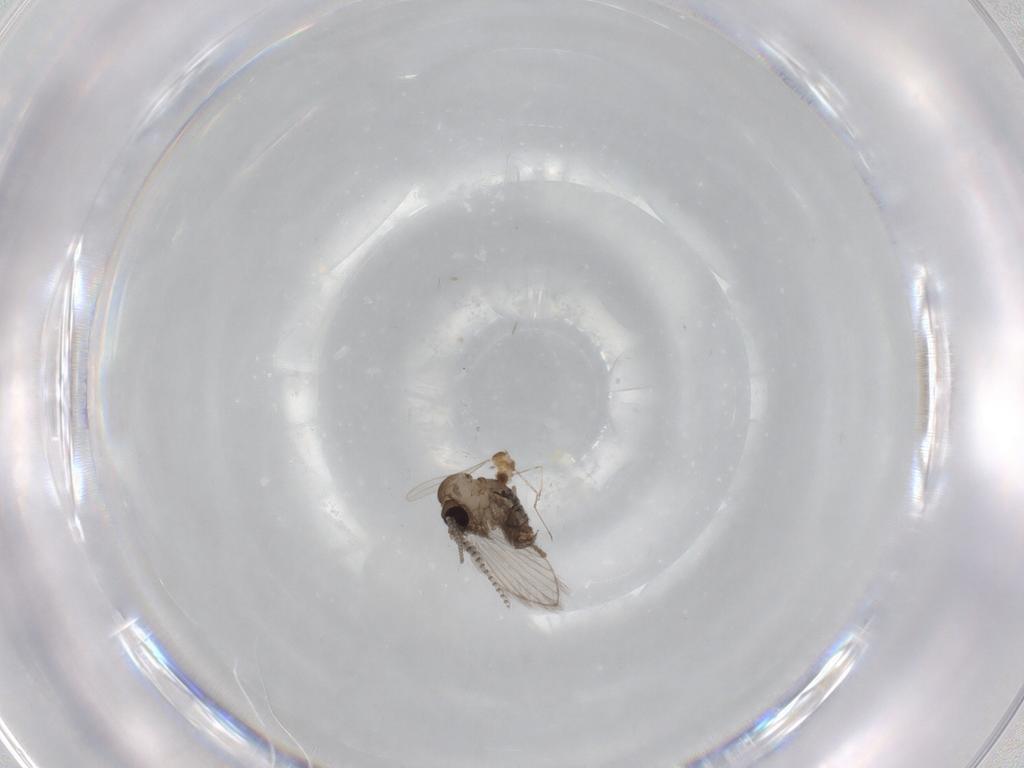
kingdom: Animalia
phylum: Arthropoda
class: Insecta
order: Diptera
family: Psychodidae
